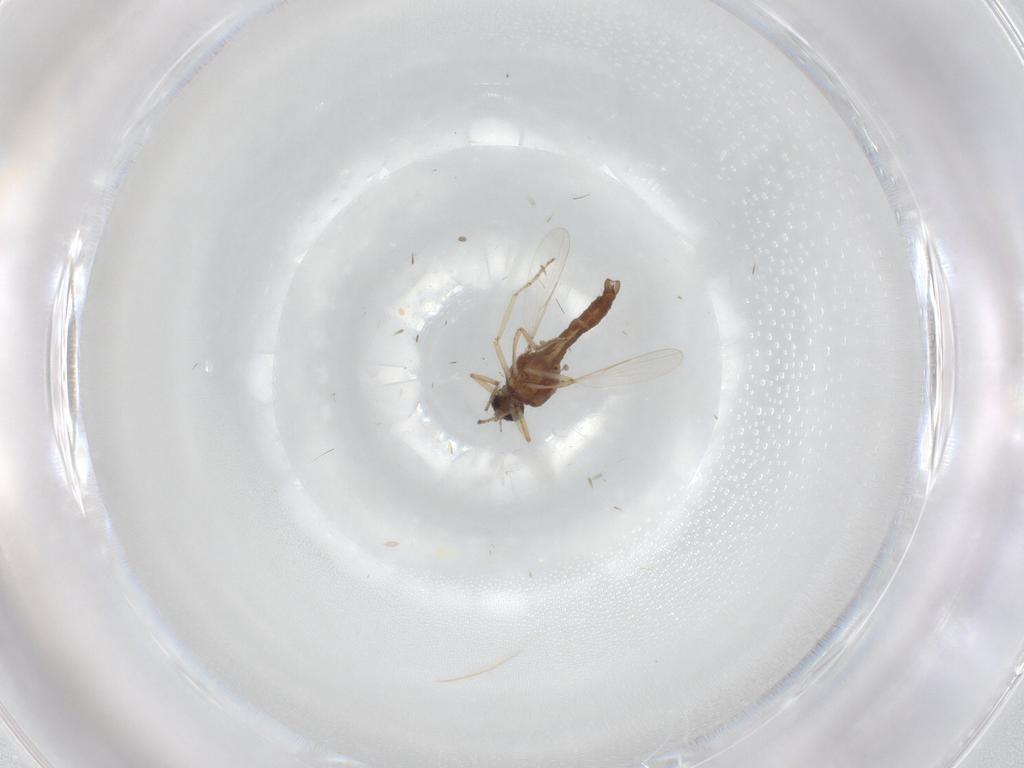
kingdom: Animalia
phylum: Arthropoda
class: Insecta
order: Diptera
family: Ceratopogonidae
